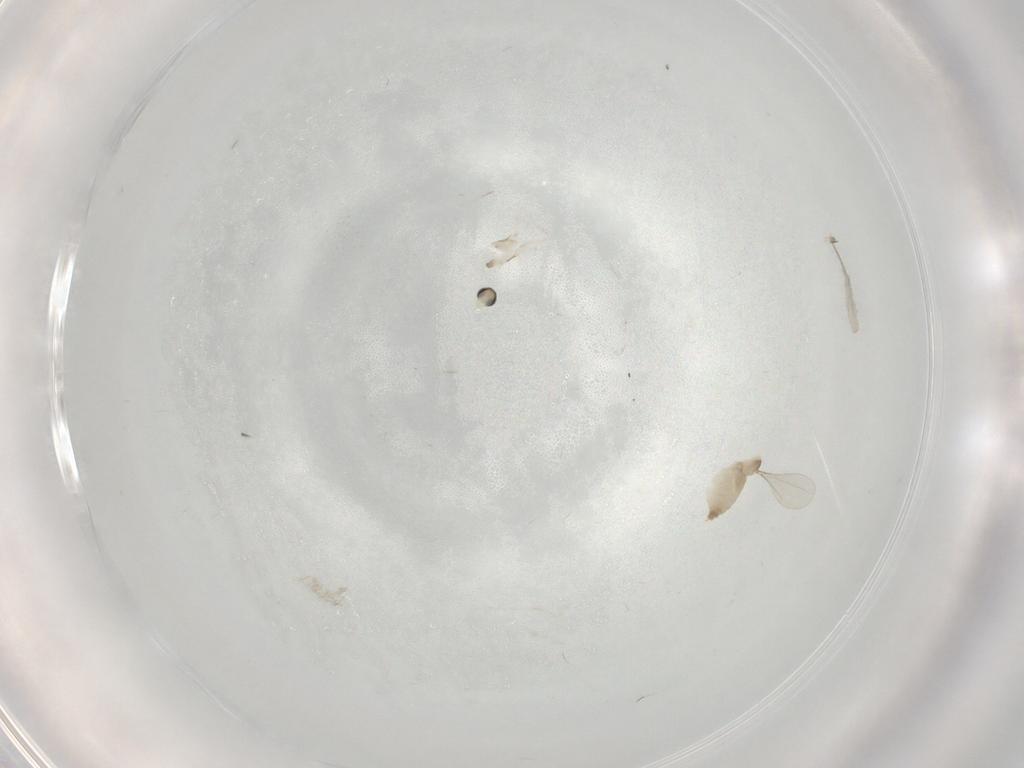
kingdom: Animalia
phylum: Arthropoda
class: Insecta
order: Diptera
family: Chironomidae
